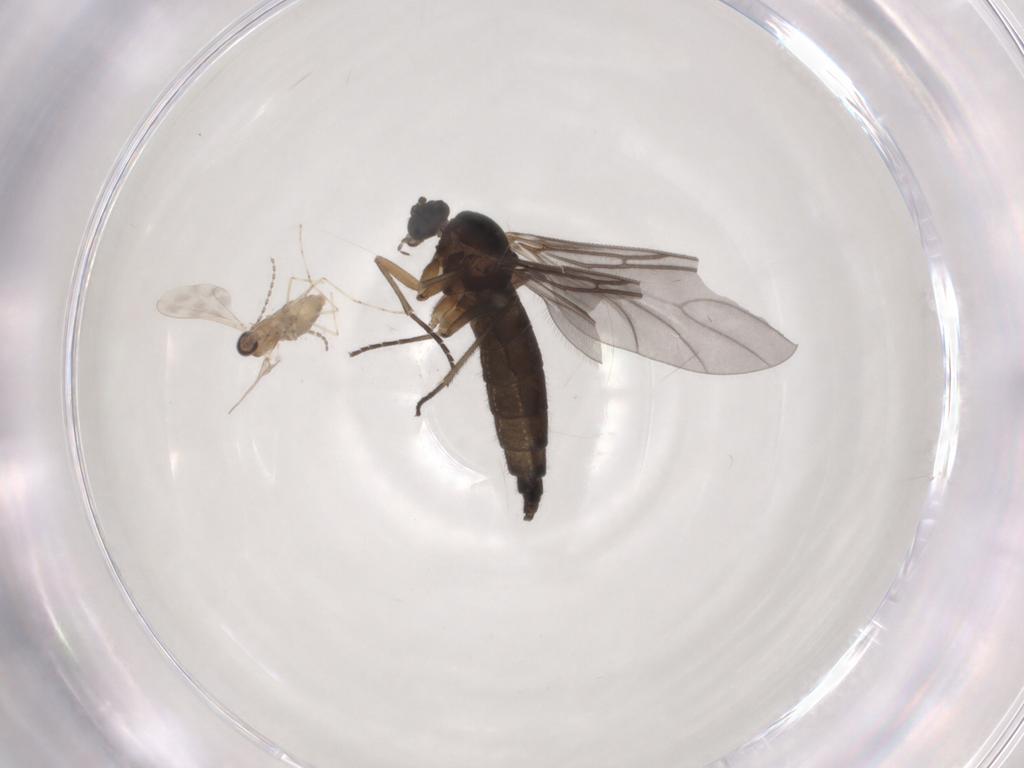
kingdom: Animalia
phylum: Arthropoda
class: Insecta
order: Diptera
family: Sciaridae
